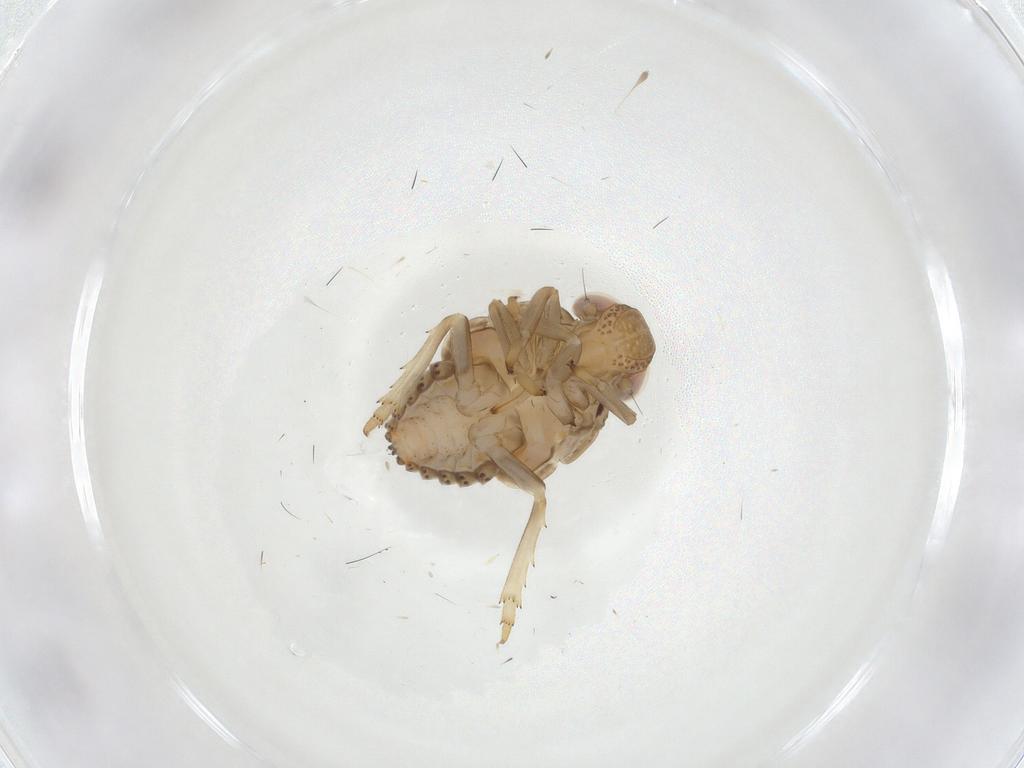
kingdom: Animalia
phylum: Arthropoda
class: Insecta
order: Hemiptera
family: Issidae
